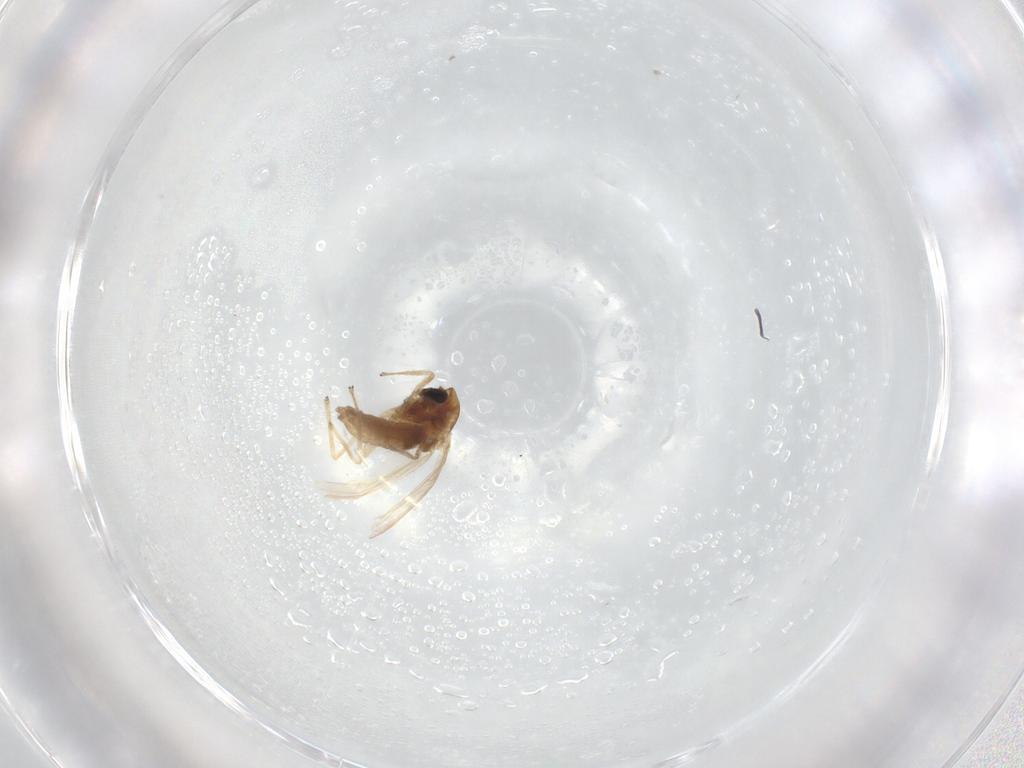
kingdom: Animalia
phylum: Arthropoda
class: Insecta
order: Diptera
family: Chironomidae
